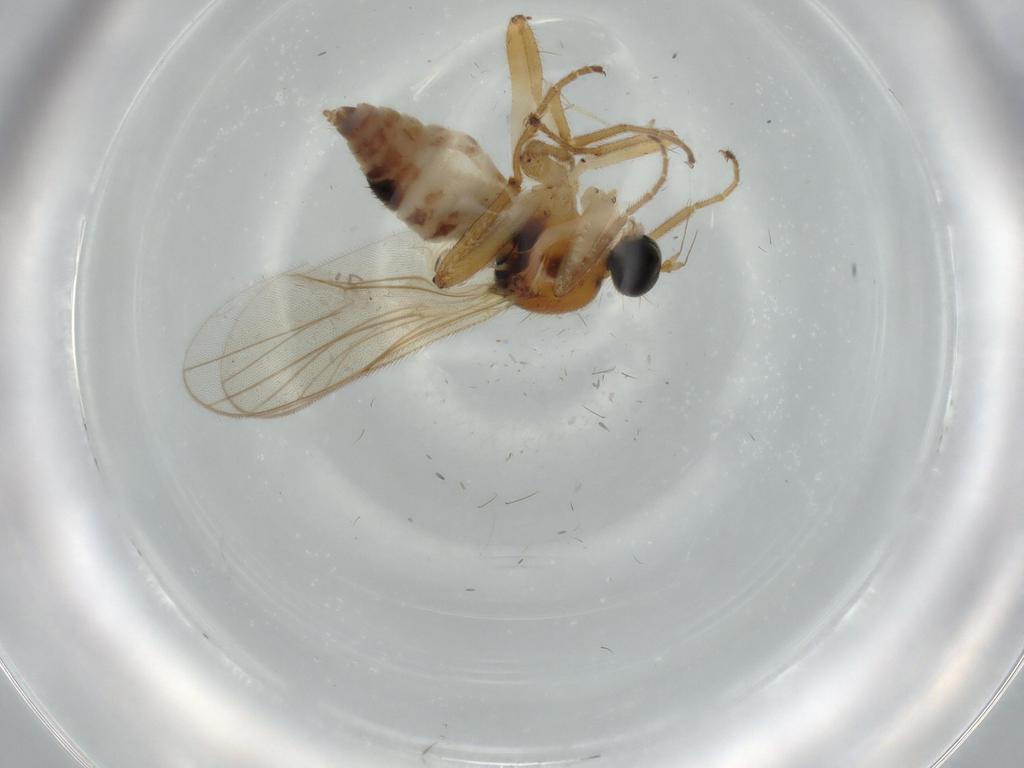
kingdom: Animalia
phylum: Arthropoda
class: Insecta
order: Diptera
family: Hybotidae
